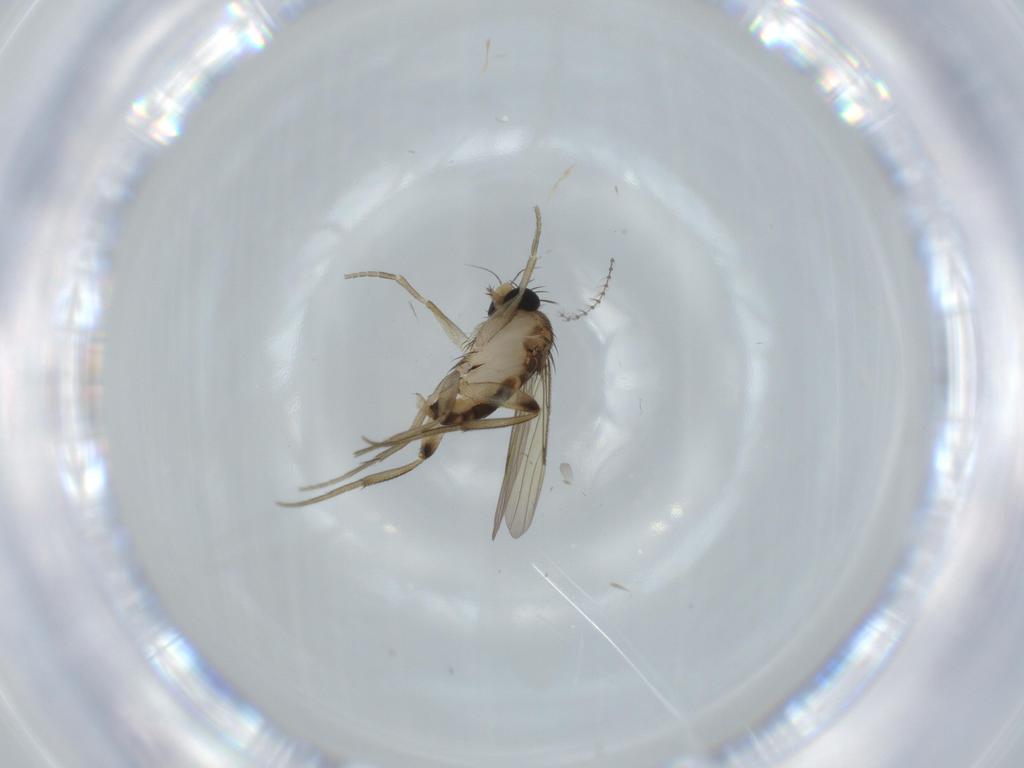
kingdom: Animalia
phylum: Arthropoda
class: Insecta
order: Diptera
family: Phoridae
